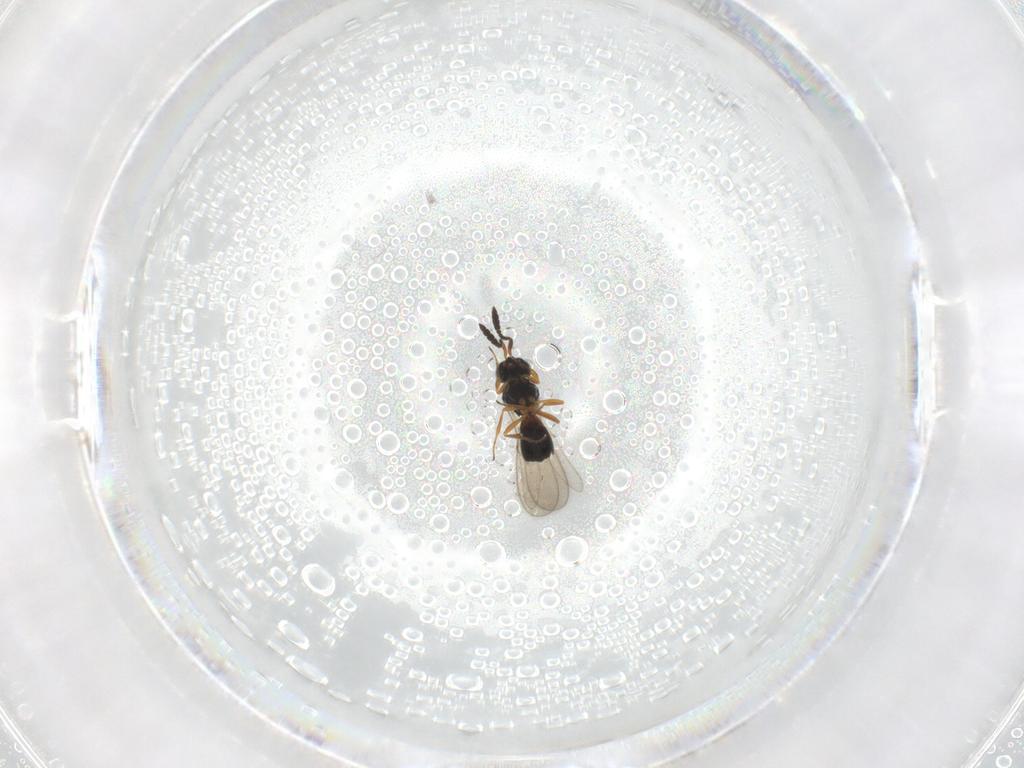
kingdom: Animalia
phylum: Arthropoda
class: Insecta
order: Hymenoptera
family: Scelionidae
